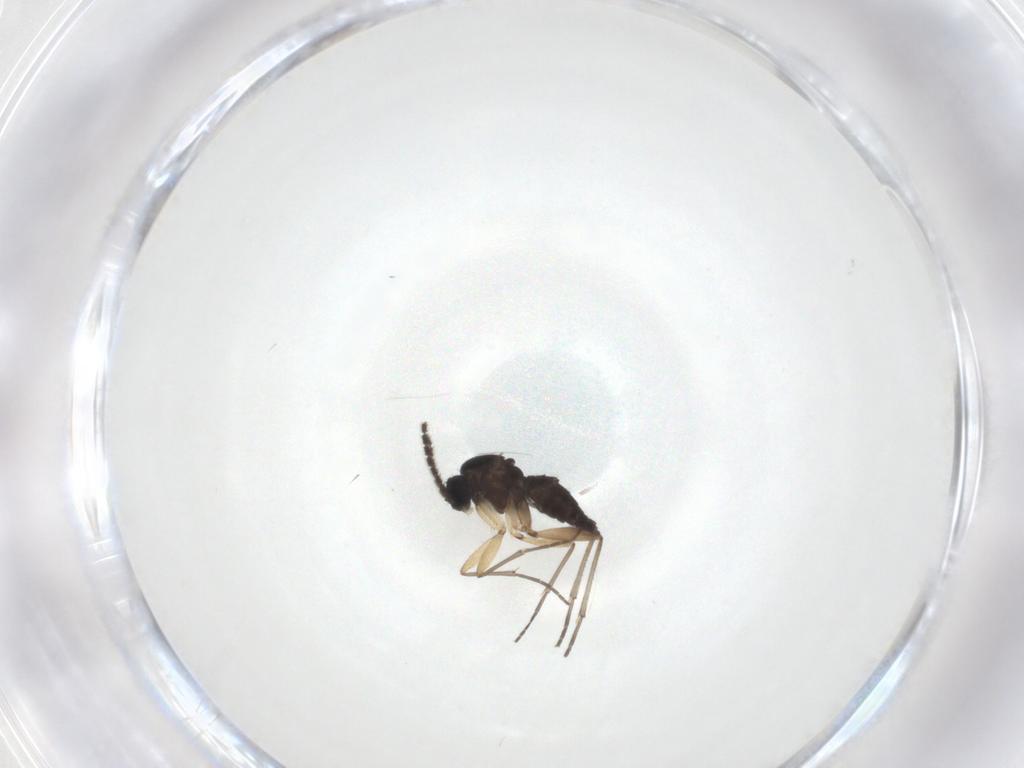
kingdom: Animalia
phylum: Arthropoda
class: Insecta
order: Diptera
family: Sciaridae
